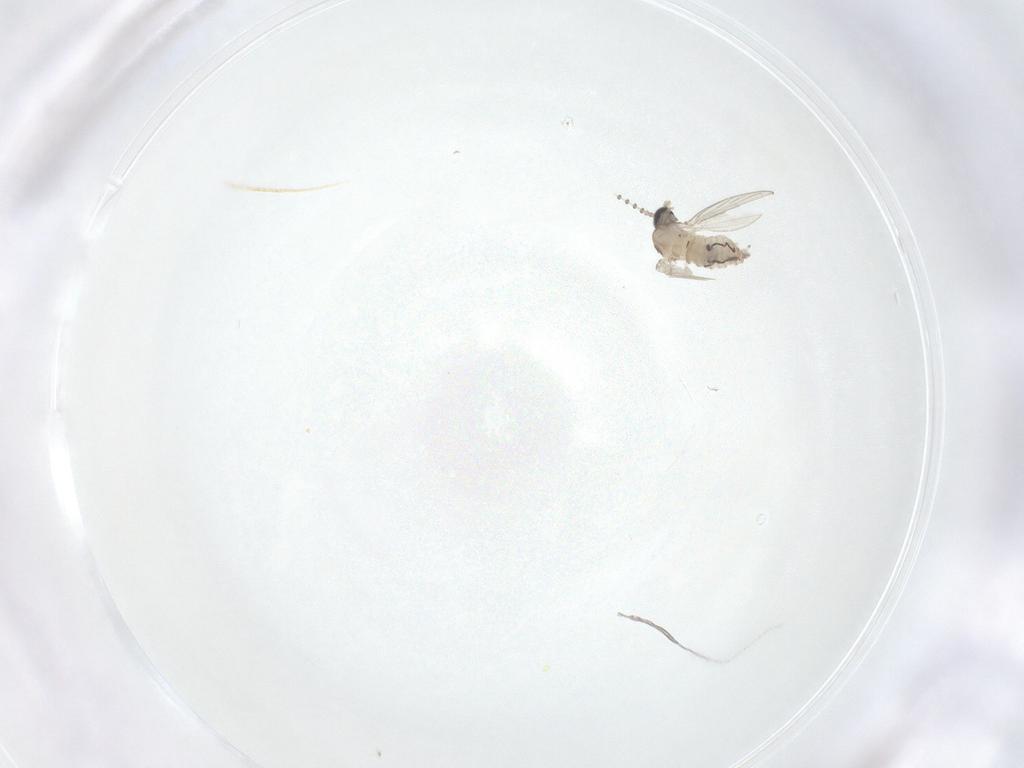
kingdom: Animalia
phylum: Arthropoda
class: Insecta
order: Diptera
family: Psychodidae
